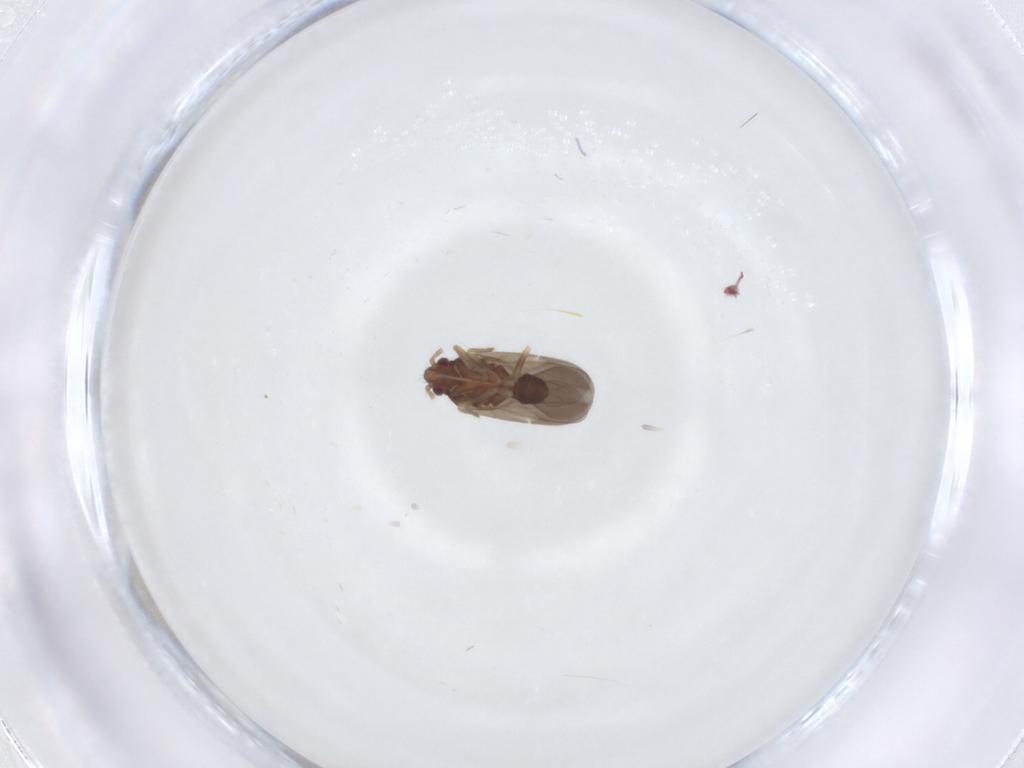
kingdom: Animalia
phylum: Arthropoda
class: Insecta
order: Hemiptera
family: Ceratocombidae
